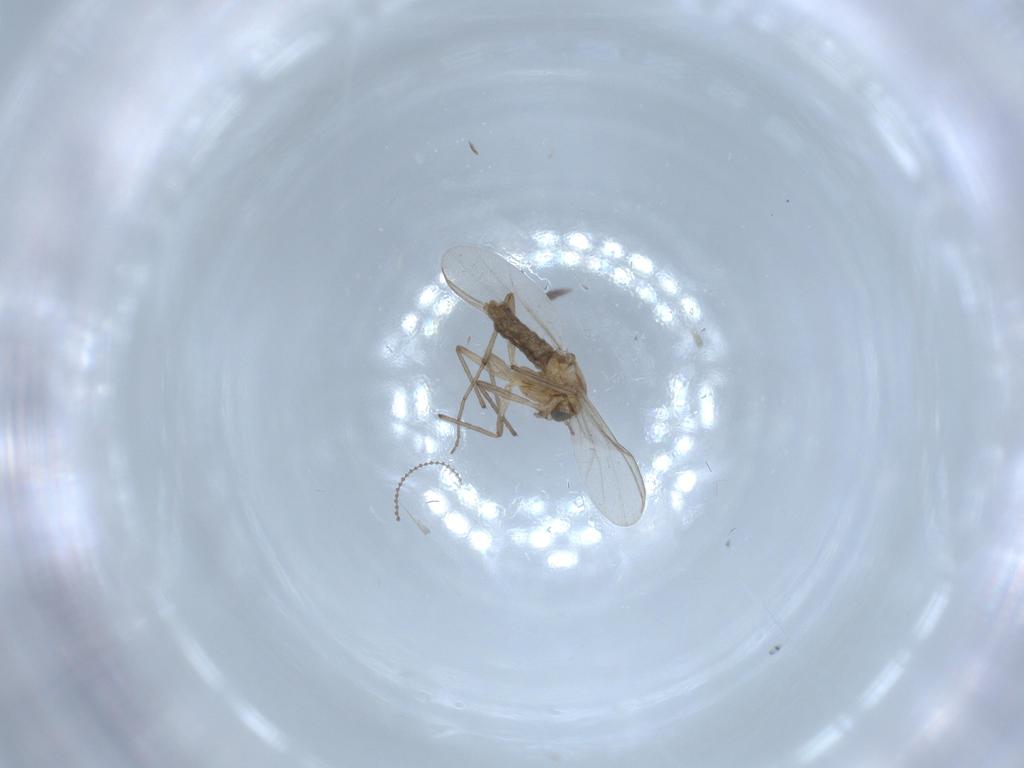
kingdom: Animalia
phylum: Arthropoda
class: Insecta
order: Diptera
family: Chironomidae
